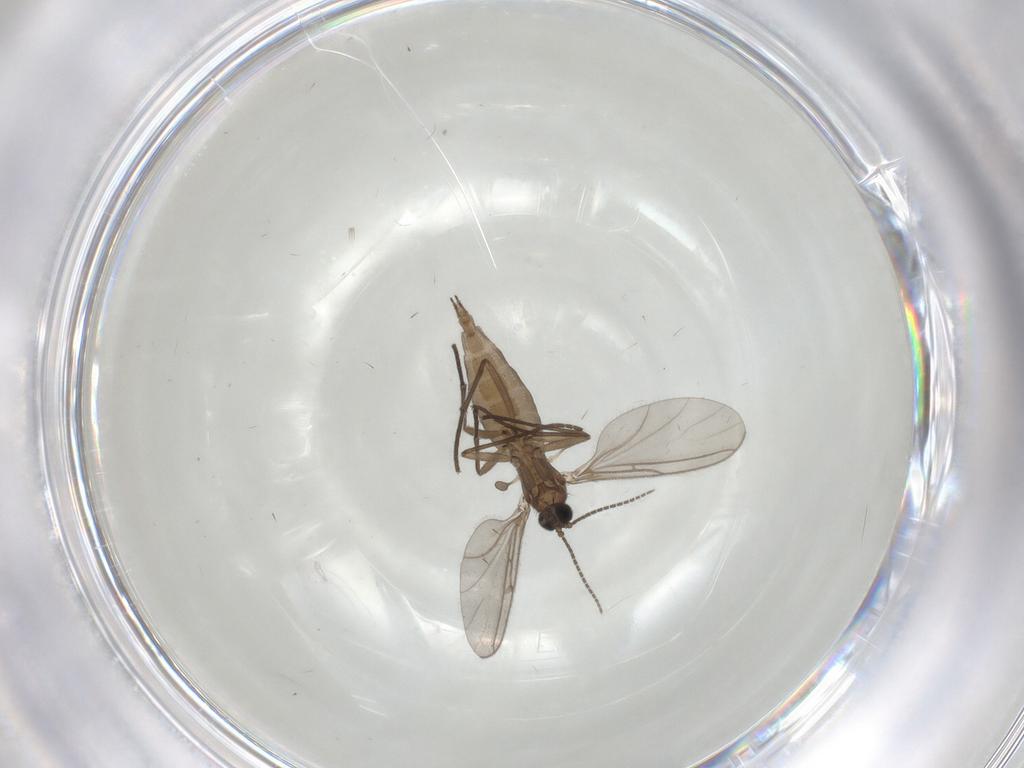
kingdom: Animalia
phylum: Arthropoda
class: Insecta
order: Diptera
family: Sciaridae
